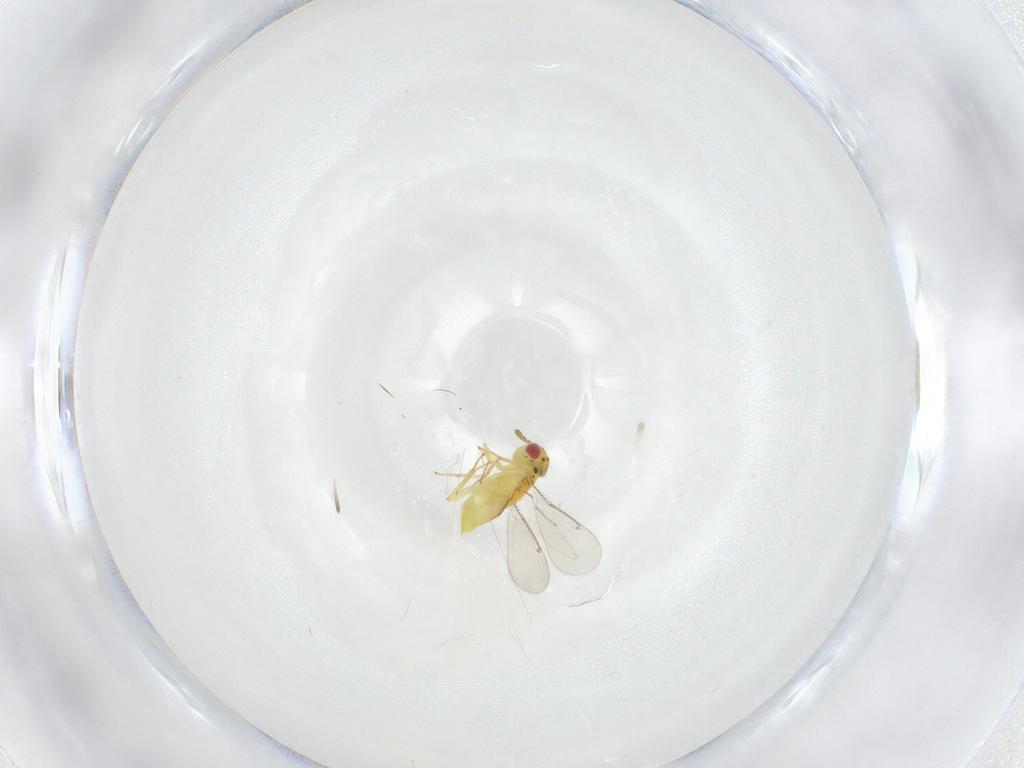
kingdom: Animalia
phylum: Arthropoda
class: Insecta
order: Hymenoptera
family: Aphelinidae
